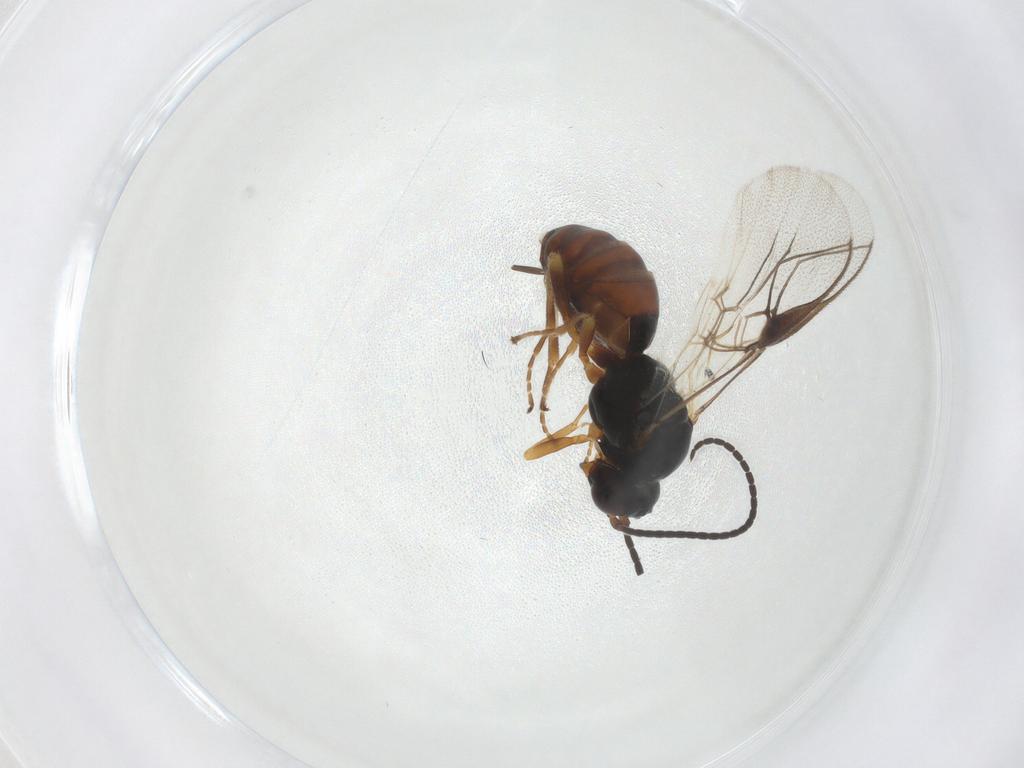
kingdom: Animalia
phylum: Arthropoda
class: Insecta
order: Hymenoptera
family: Braconidae
